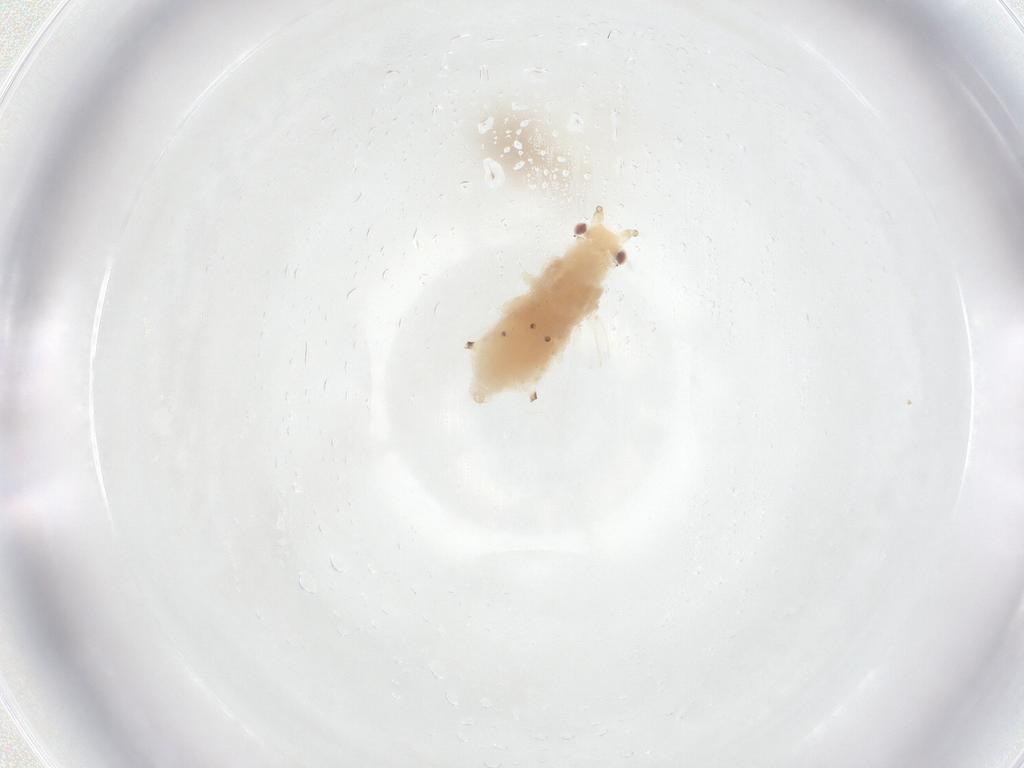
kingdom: Animalia
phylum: Arthropoda
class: Insecta
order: Hemiptera
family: Aphididae
